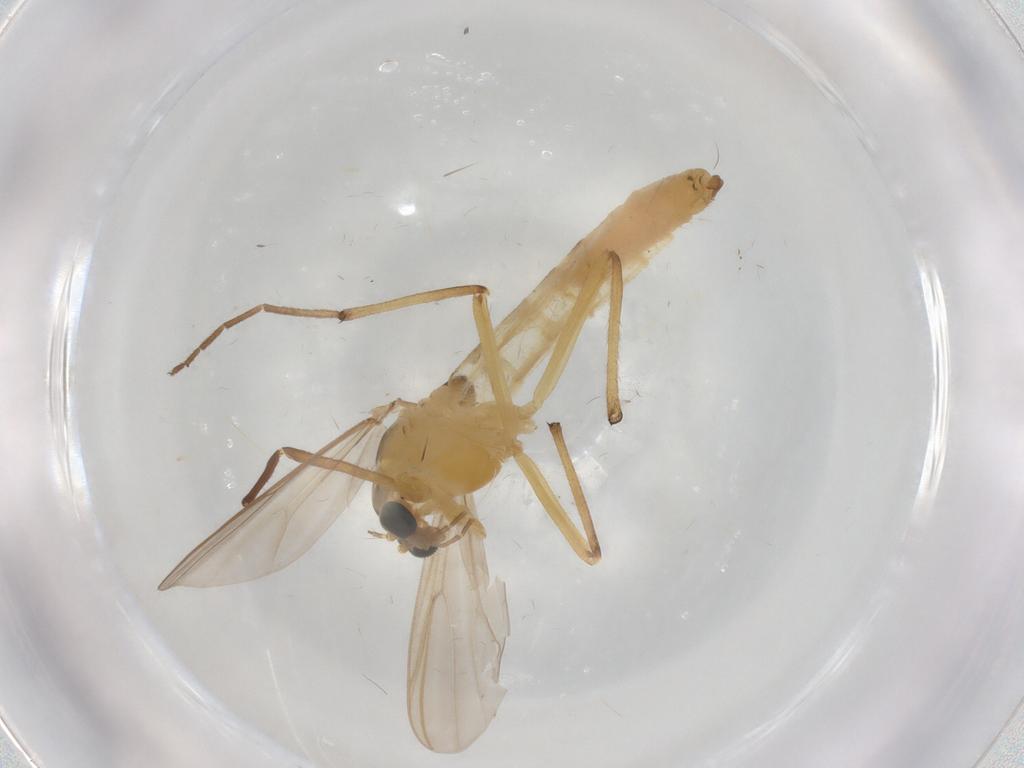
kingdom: Animalia
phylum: Arthropoda
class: Insecta
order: Diptera
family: Chironomidae
